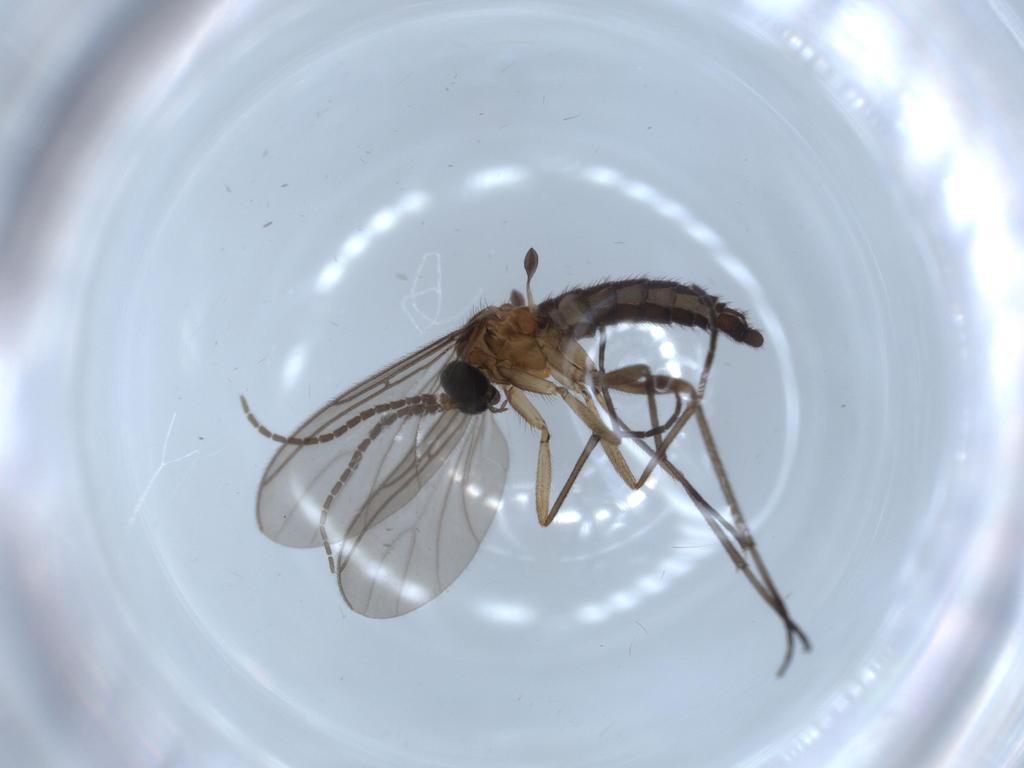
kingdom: Animalia
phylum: Arthropoda
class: Insecta
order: Diptera
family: Sciaridae
